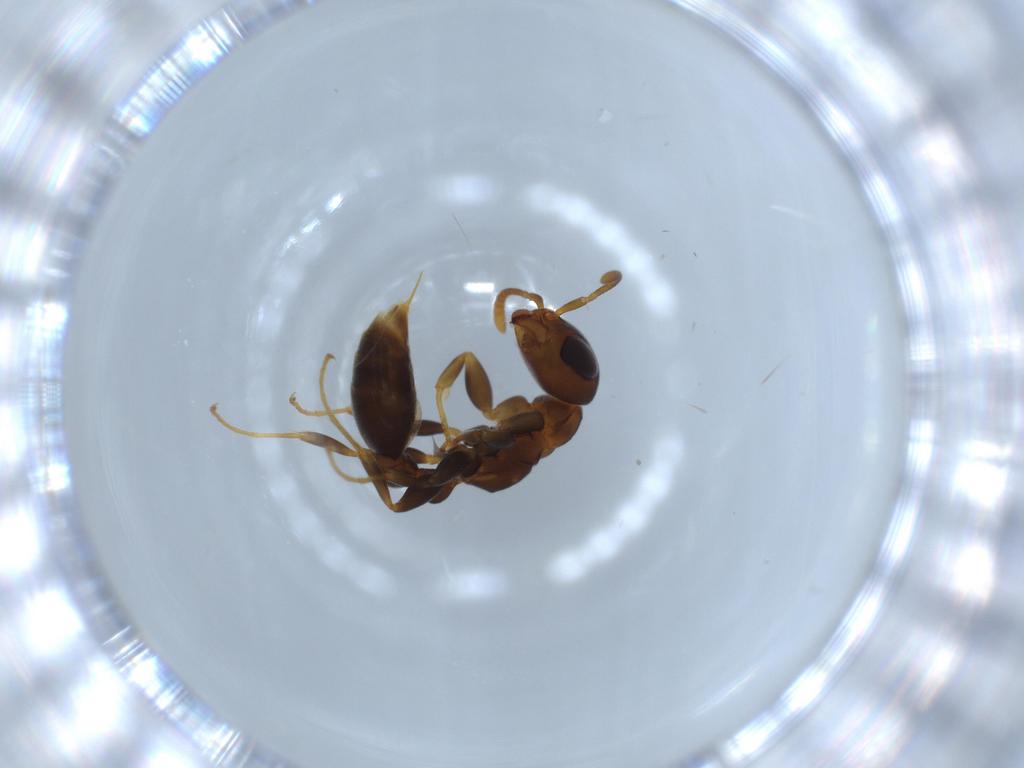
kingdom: Animalia
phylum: Arthropoda
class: Insecta
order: Hymenoptera
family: Formicidae
